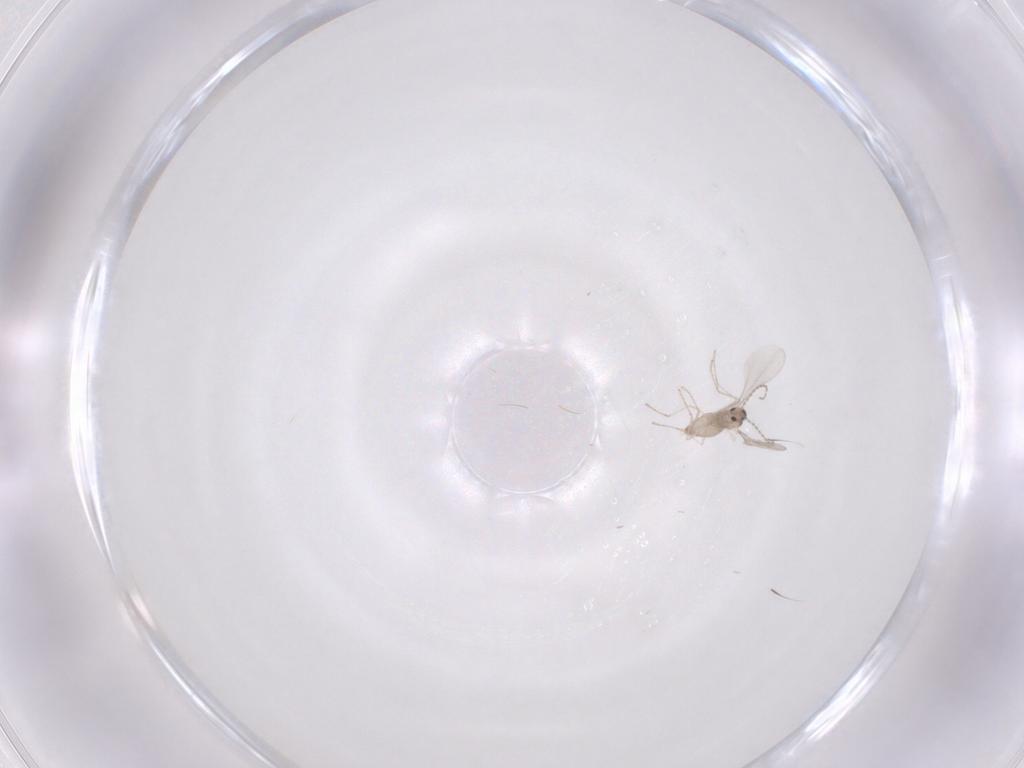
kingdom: Animalia
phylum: Arthropoda
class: Insecta
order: Diptera
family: Cecidomyiidae
